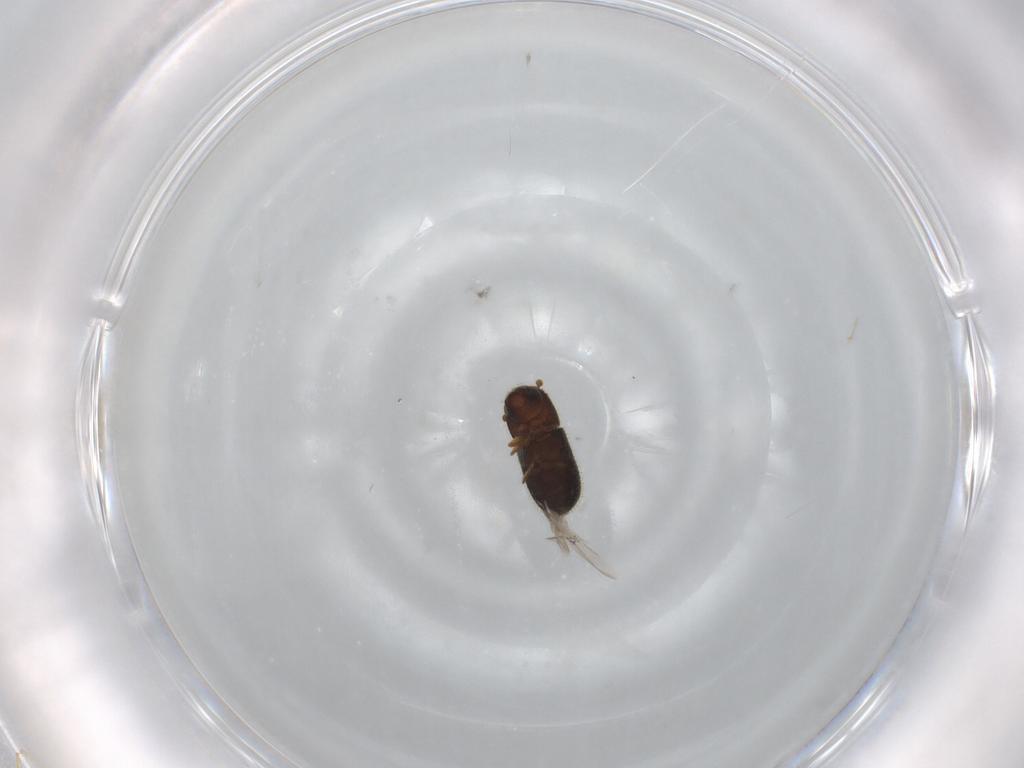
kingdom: Animalia
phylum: Arthropoda
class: Insecta
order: Coleoptera
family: Curculionidae
